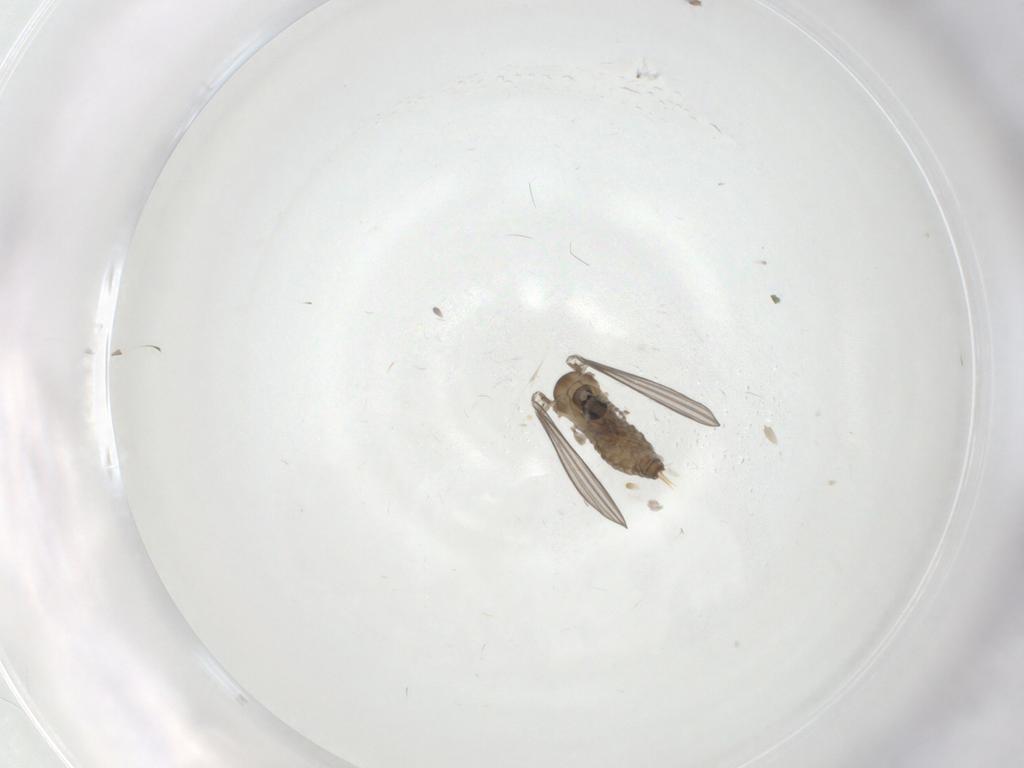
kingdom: Animalia
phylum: Arthropoda
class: Insecta
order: Diptera
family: Psychodidae
